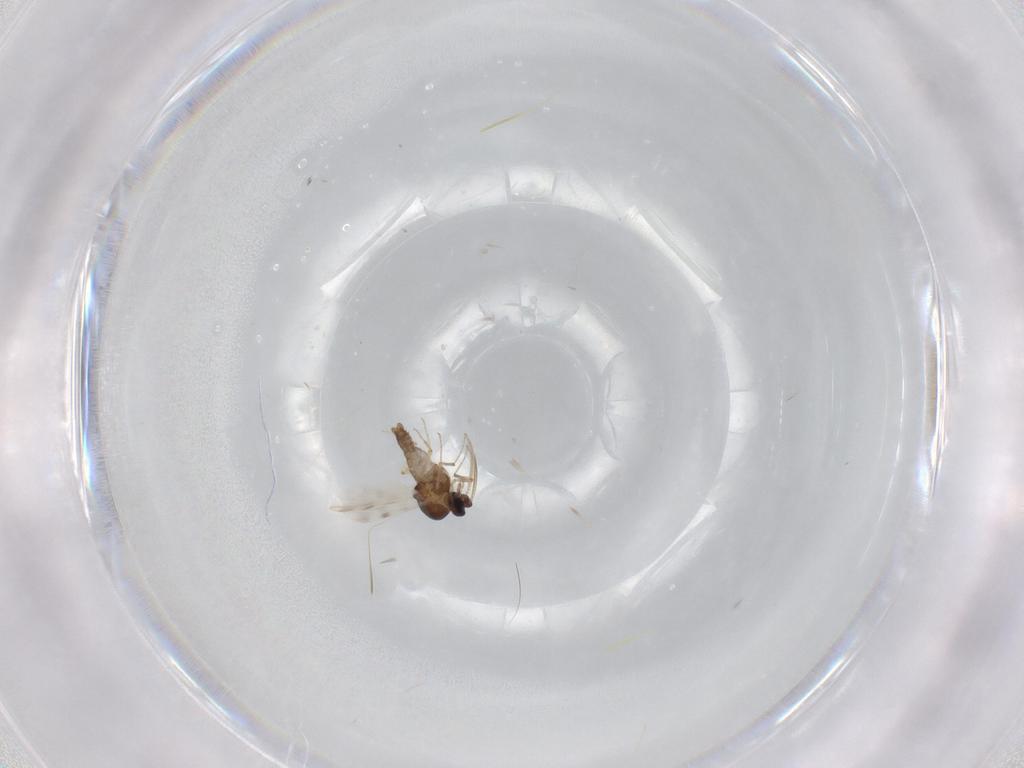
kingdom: Animalia
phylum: Arthropoda
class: Insecta
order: Diptera
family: Ceratopogonidae
